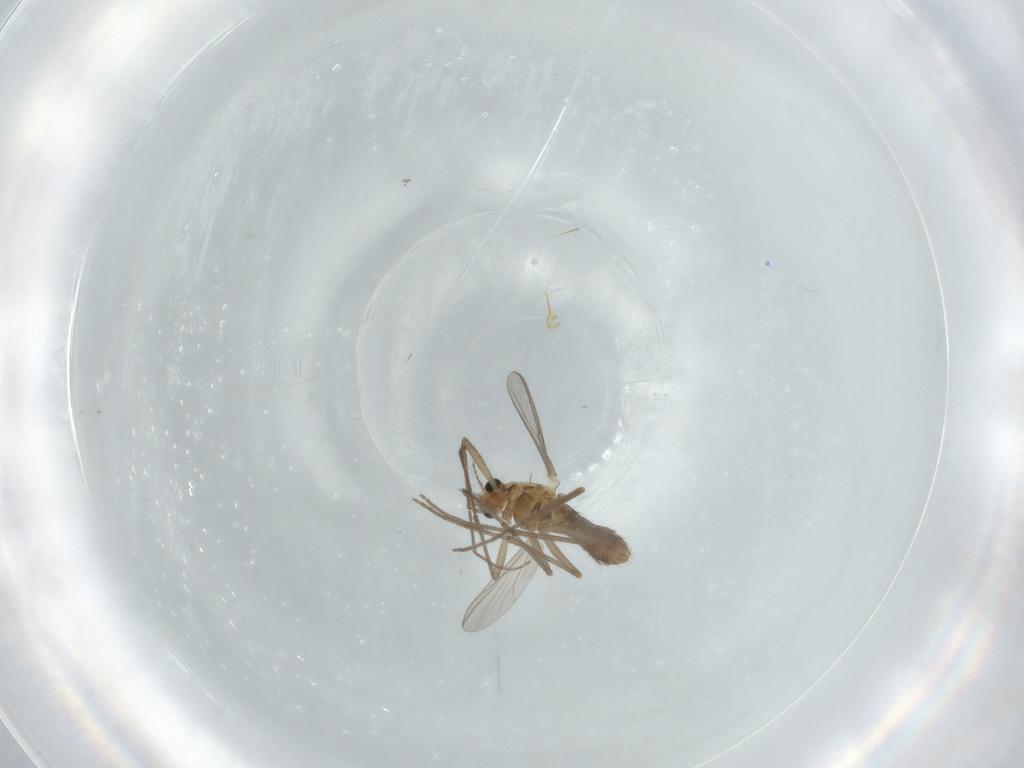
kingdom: Animalia
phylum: Arthropoda
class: Insecta
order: Diptera
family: Chironomidae
